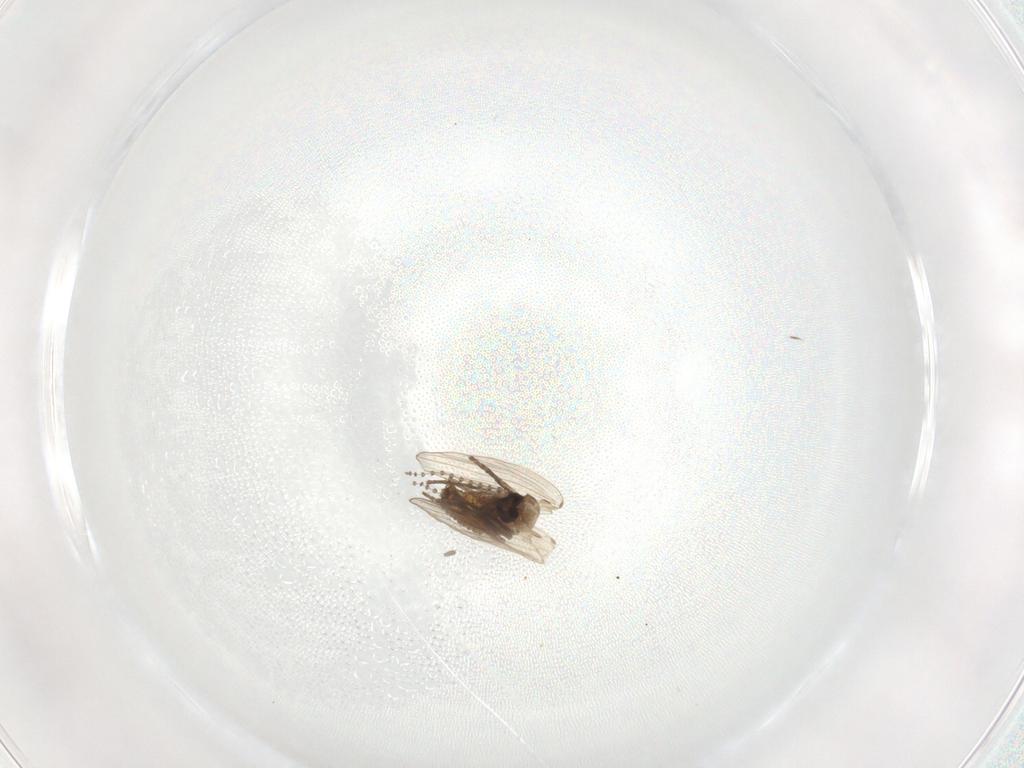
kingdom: Animalia
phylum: Arthropoda
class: Insecta
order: Diptera
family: Psychodidae
